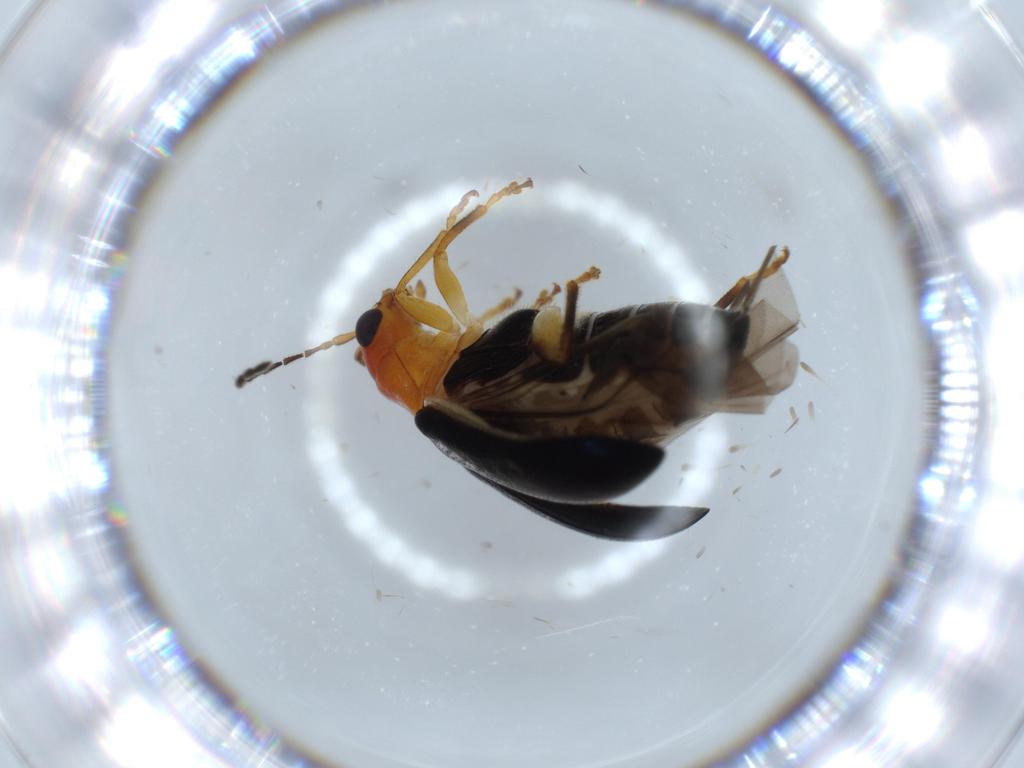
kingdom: Animalia
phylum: Arthropoda
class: Insecta
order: Coleoptera
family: Chrysomelidae
